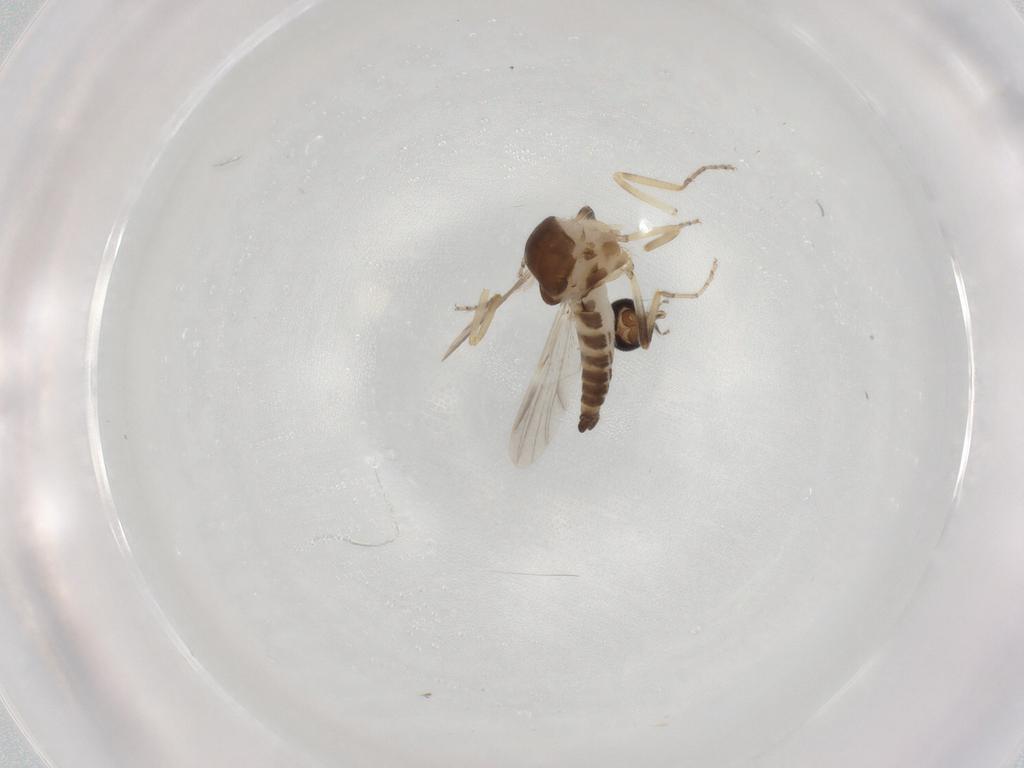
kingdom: Animalia
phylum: Arthropoda
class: Insecta
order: Diptera
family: Ceratopogonidae
